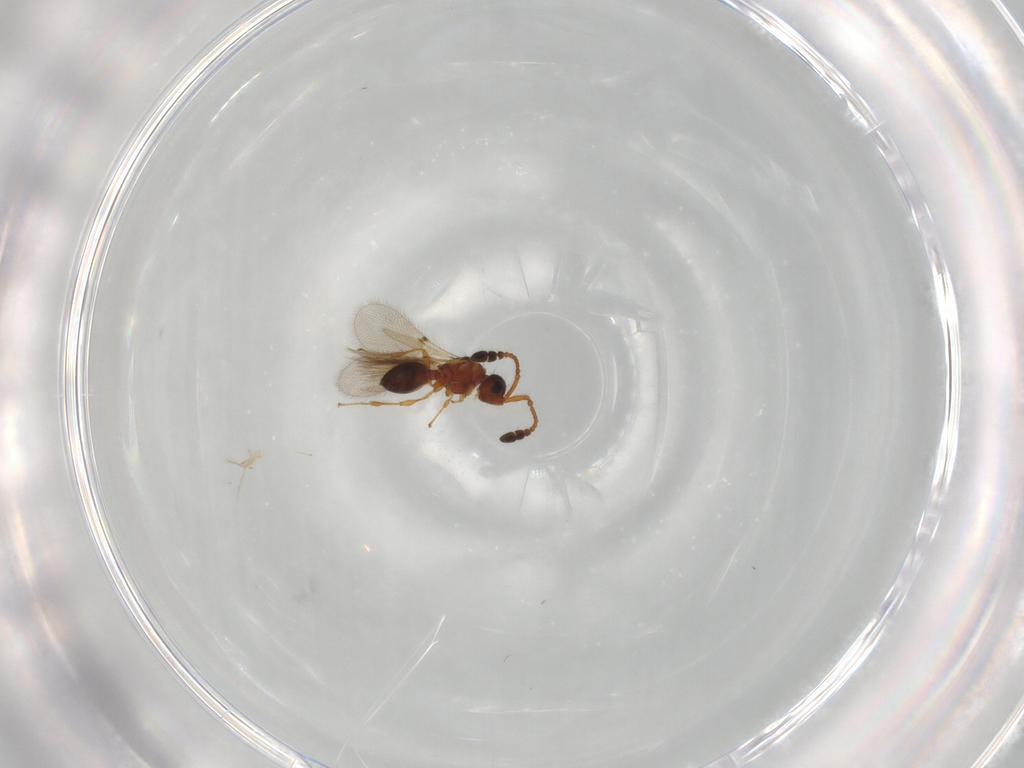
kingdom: Animalia
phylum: Arthropoda
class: Insecta
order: Hymenoptera
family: Diapriidae
